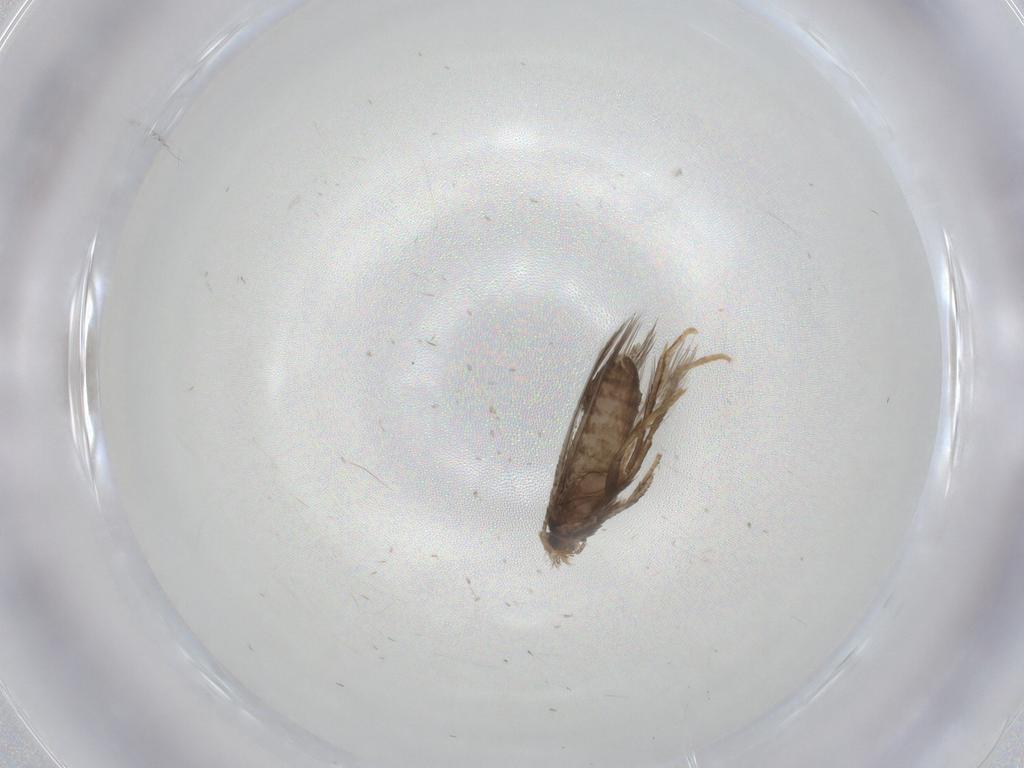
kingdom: Animalia
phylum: Arthropoda
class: Insecta
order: Lepidoptera
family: Nepticulidae
